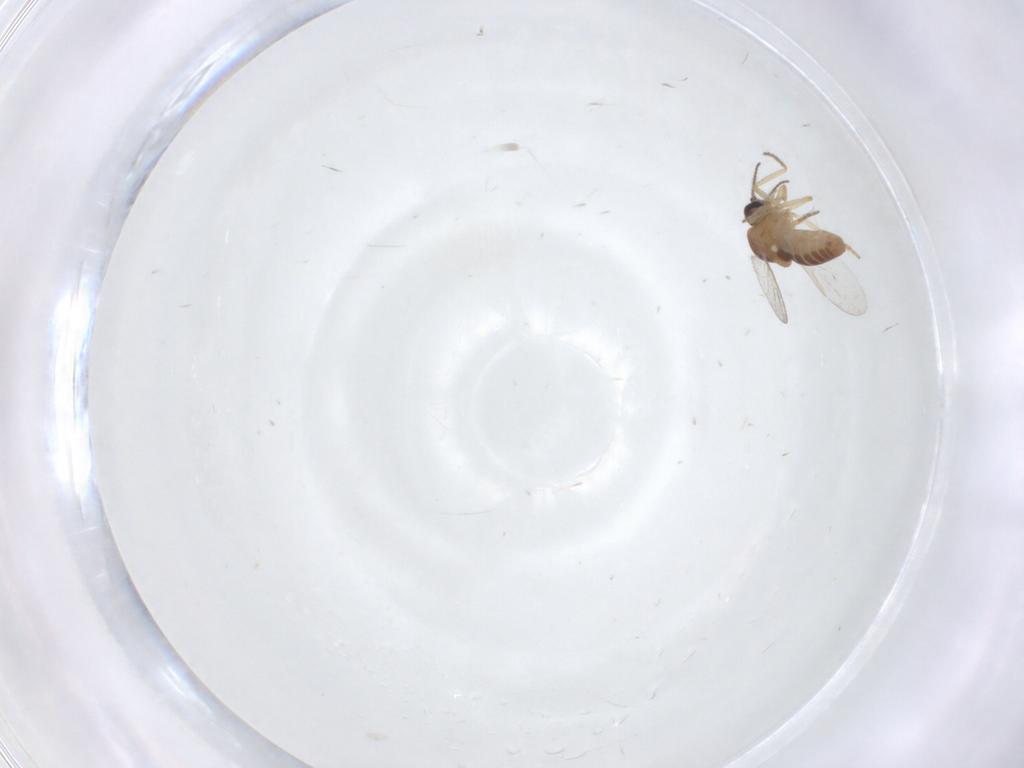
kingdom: Animalia
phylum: Arthropoda
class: Insecta
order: Diptera
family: Ceratopogonidae
